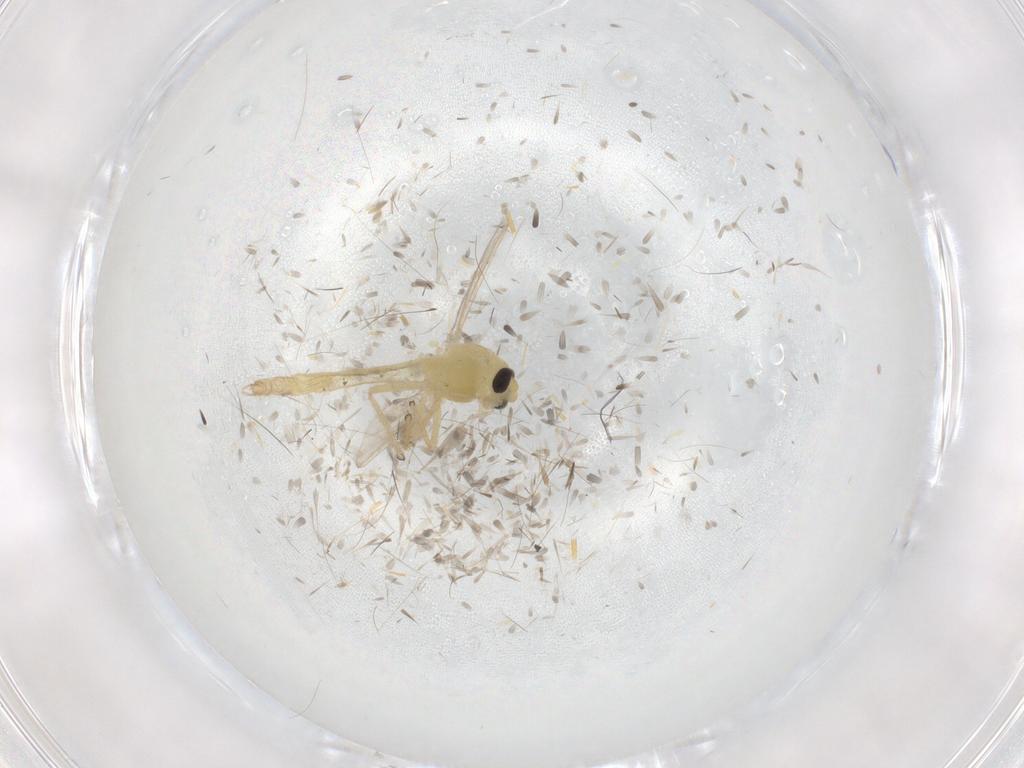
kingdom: Animalia
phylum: Arthropoda
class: Insecta
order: Diptera
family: Chironomidae
